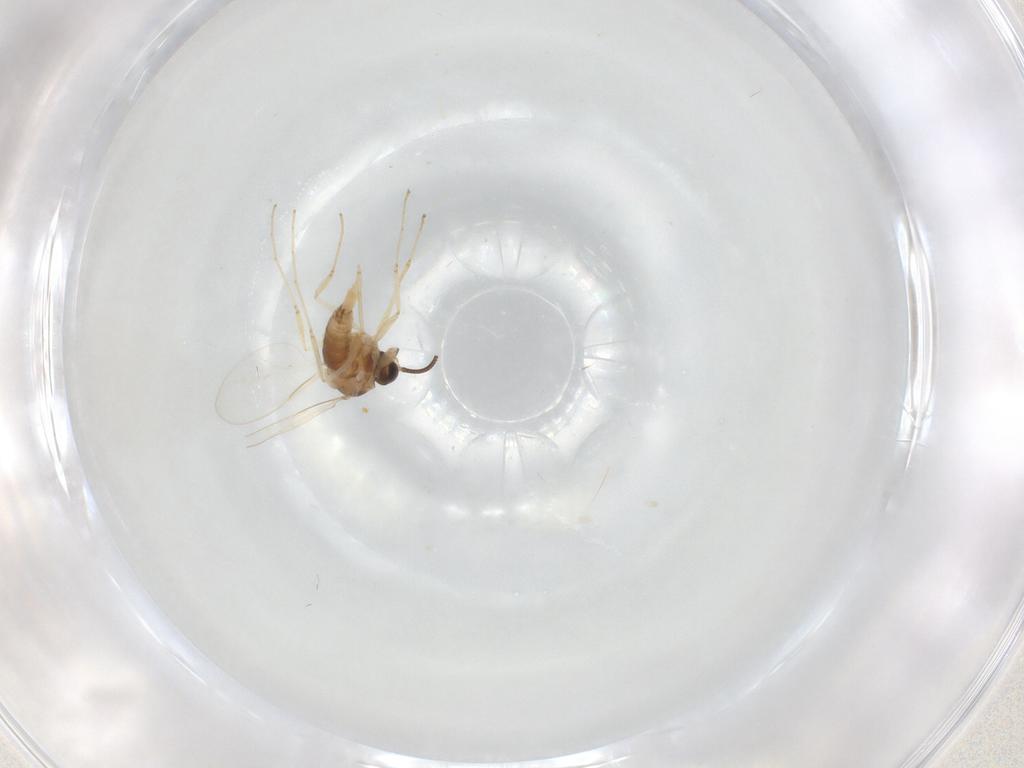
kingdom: Animalia
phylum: Arthropoda
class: Insecta
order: Diptera
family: Cecidomyiidae
